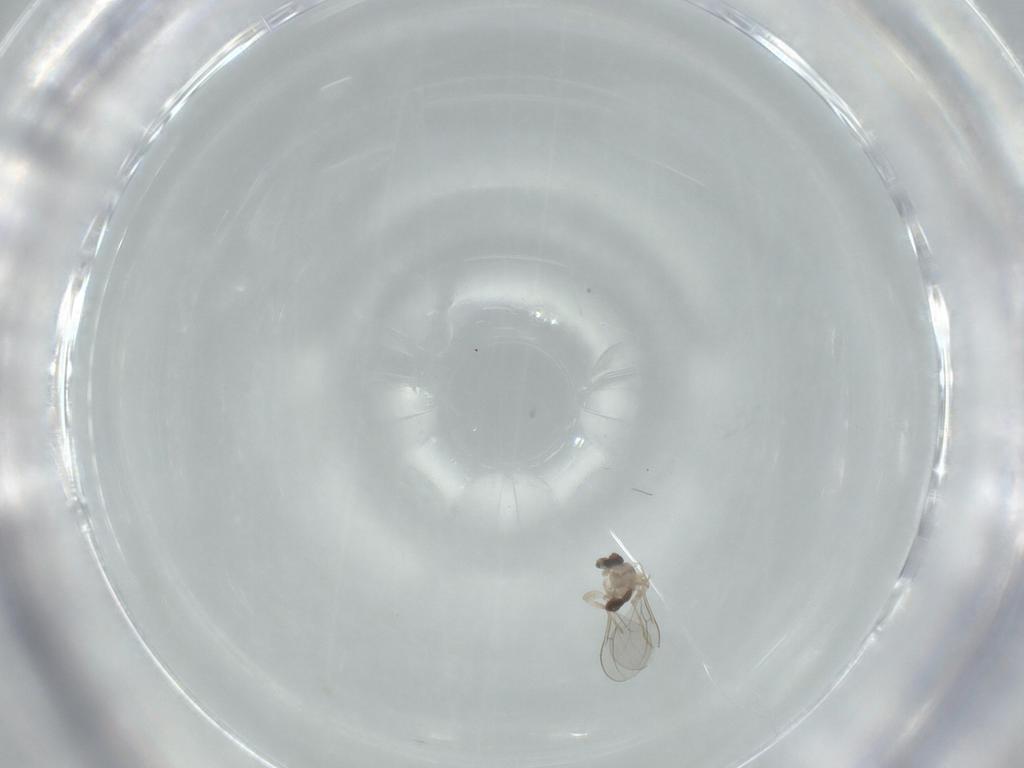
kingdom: Animalia
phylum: Arthropoda
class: Insecta
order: Diptera
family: Cecidomyiidae
